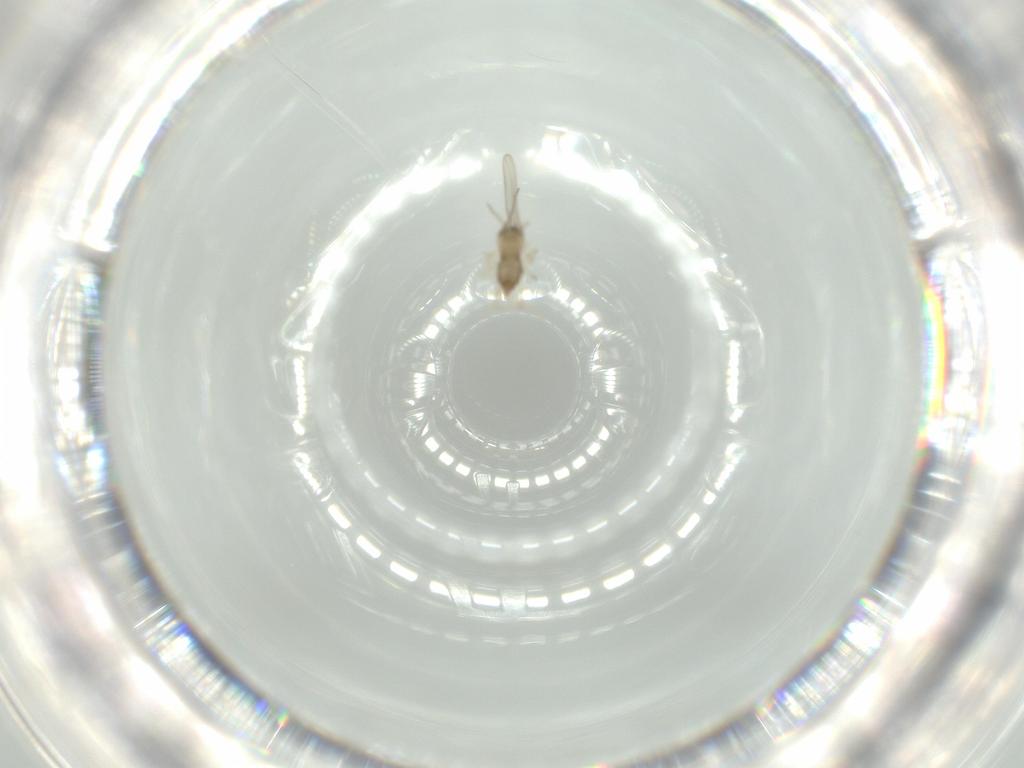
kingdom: Animalia
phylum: Arthropoda
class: Insecta
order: Diptera
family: Cecidomyiidae
